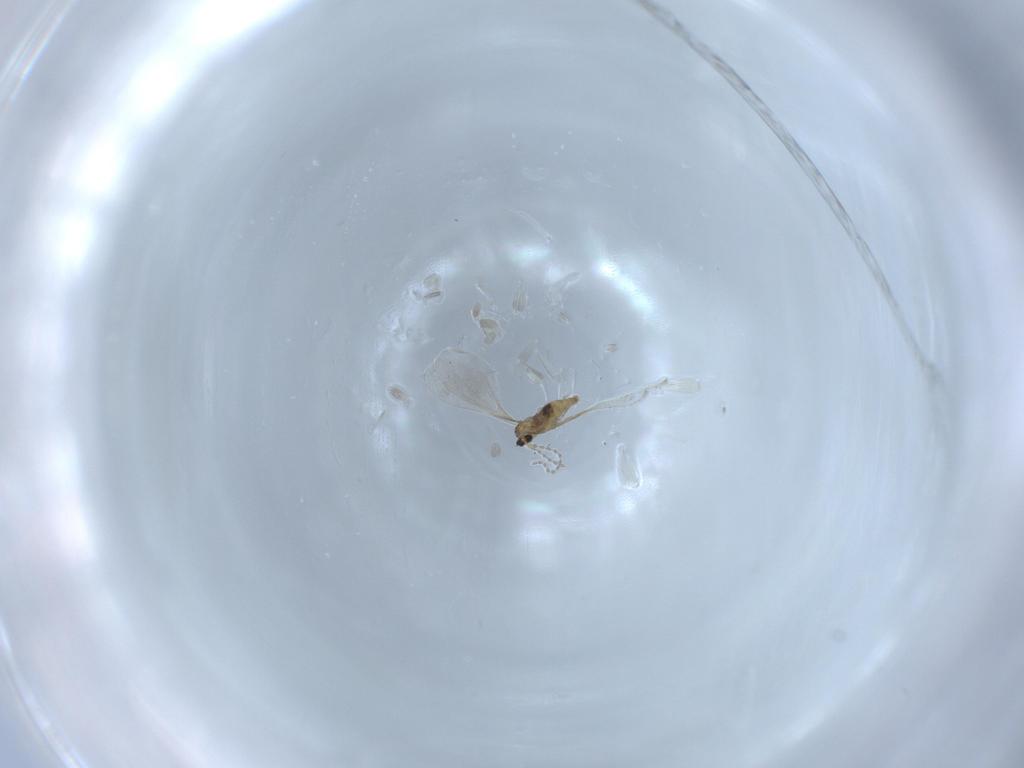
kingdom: Animalia
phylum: Arthropoda
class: Insecta
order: Diptera
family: Cecidomyiidae
